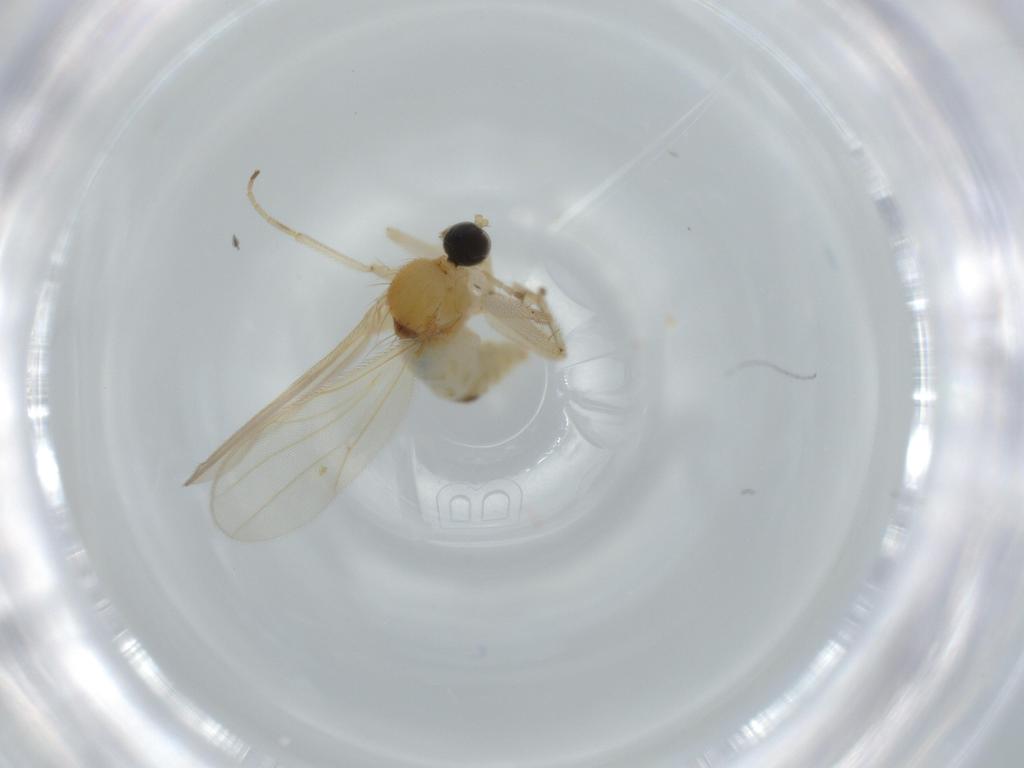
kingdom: Animalia
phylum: Arthropoda
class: Insecta
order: Diptera
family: Hybotidae
